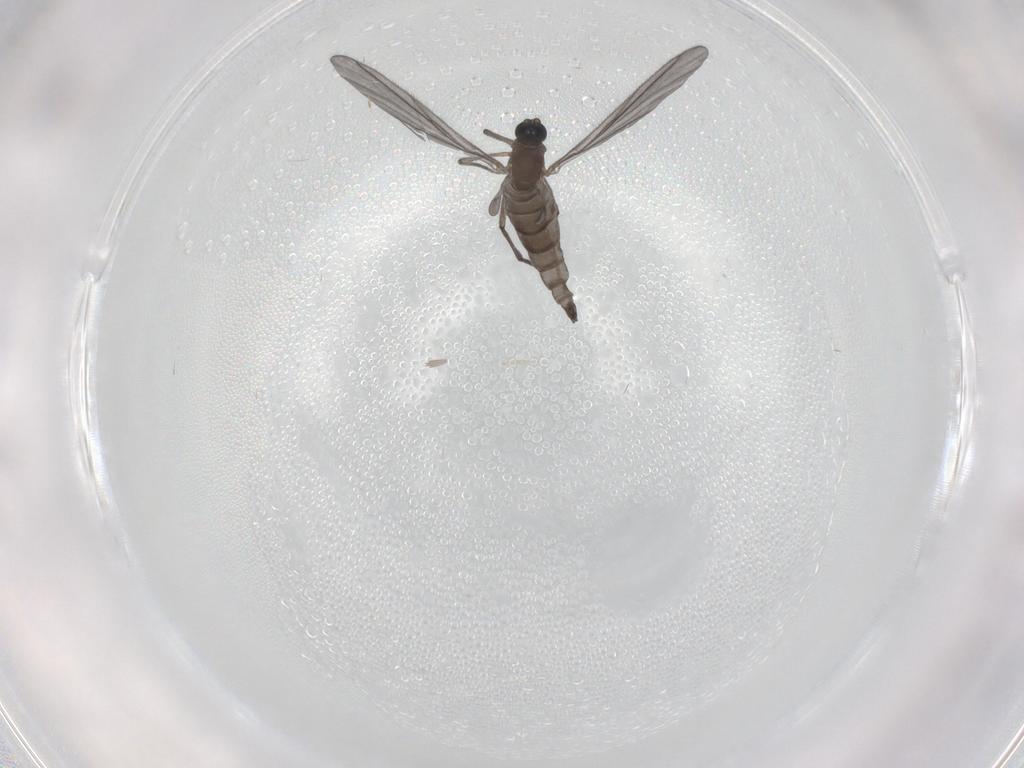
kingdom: Animalia
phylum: Arthropoda
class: Insecta
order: Diptera
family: Sciaridae
